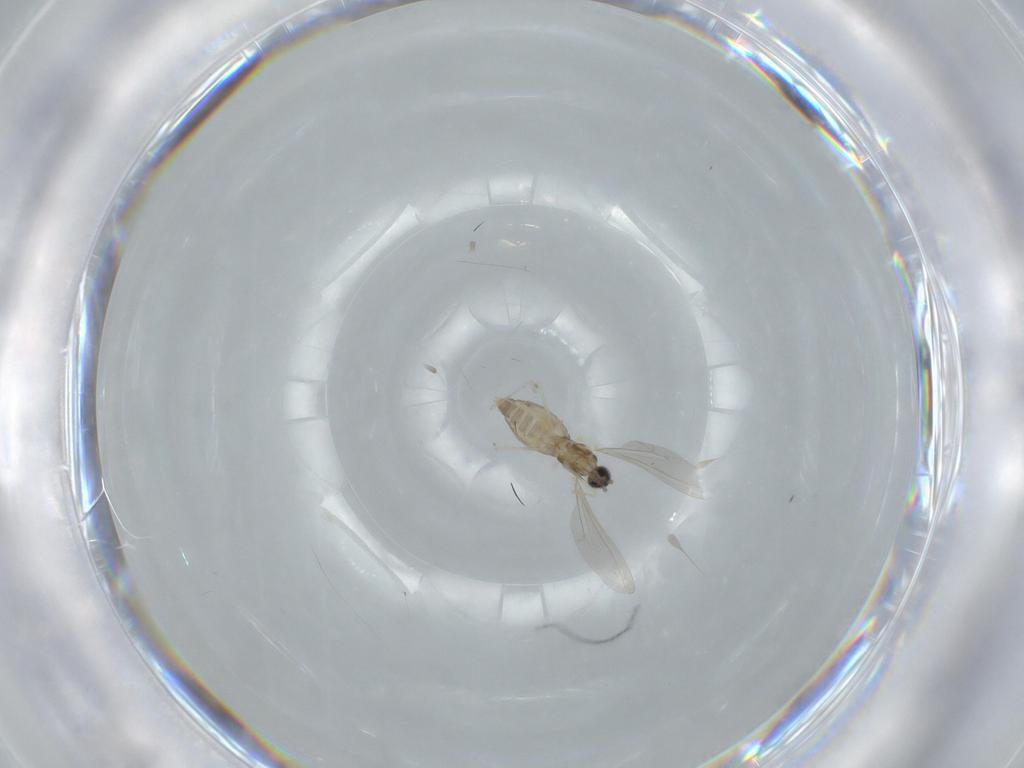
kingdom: Animalia
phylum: Arthropoda
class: Insecta
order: Diptera
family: Cecidomyiidae
